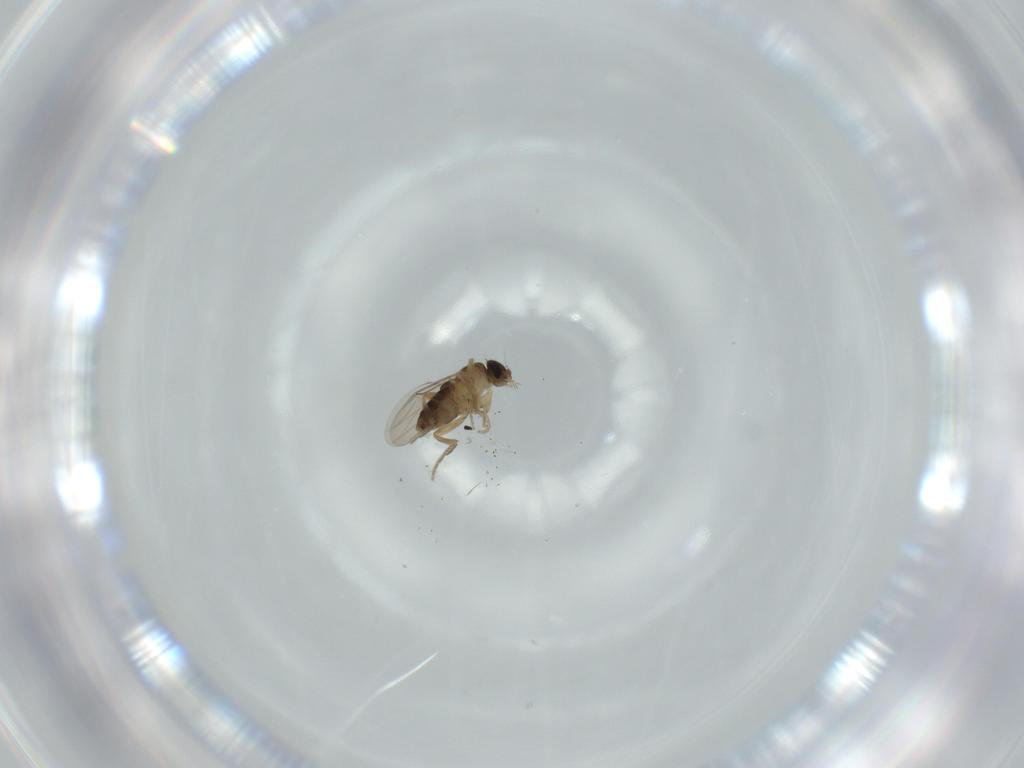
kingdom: Animalia
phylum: Arthropoda
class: Insecta
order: Diptera
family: Phoridae
